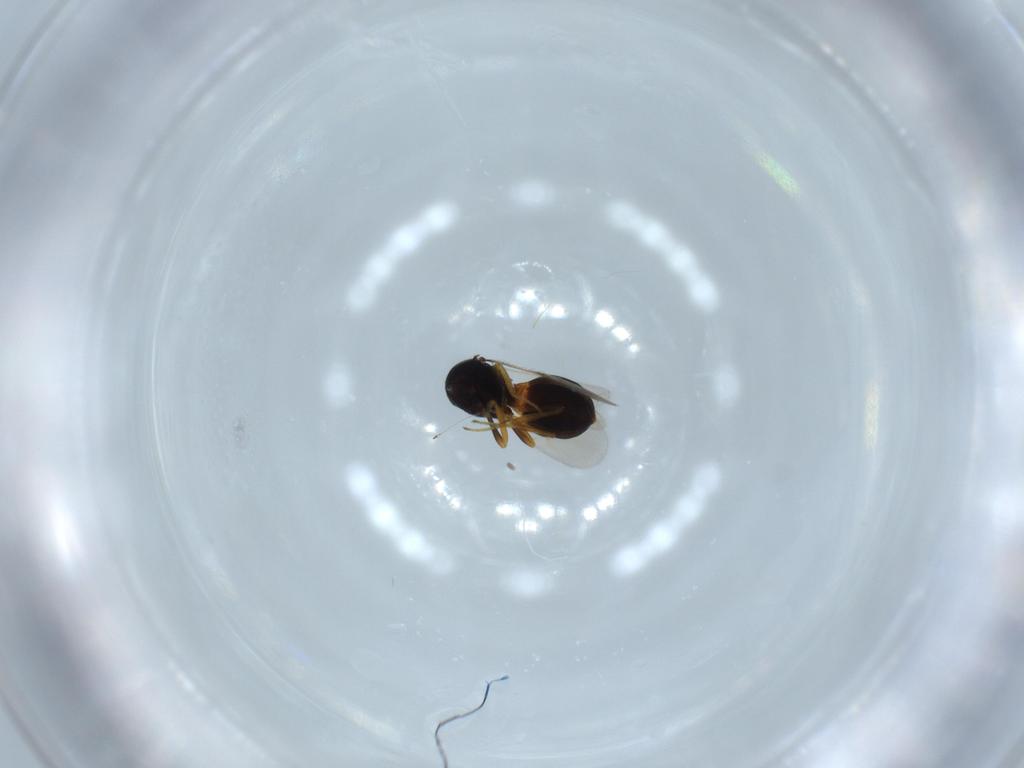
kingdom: Animalia
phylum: Arthropoda
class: Insecta
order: Hymenoptera
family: Scelionidae
